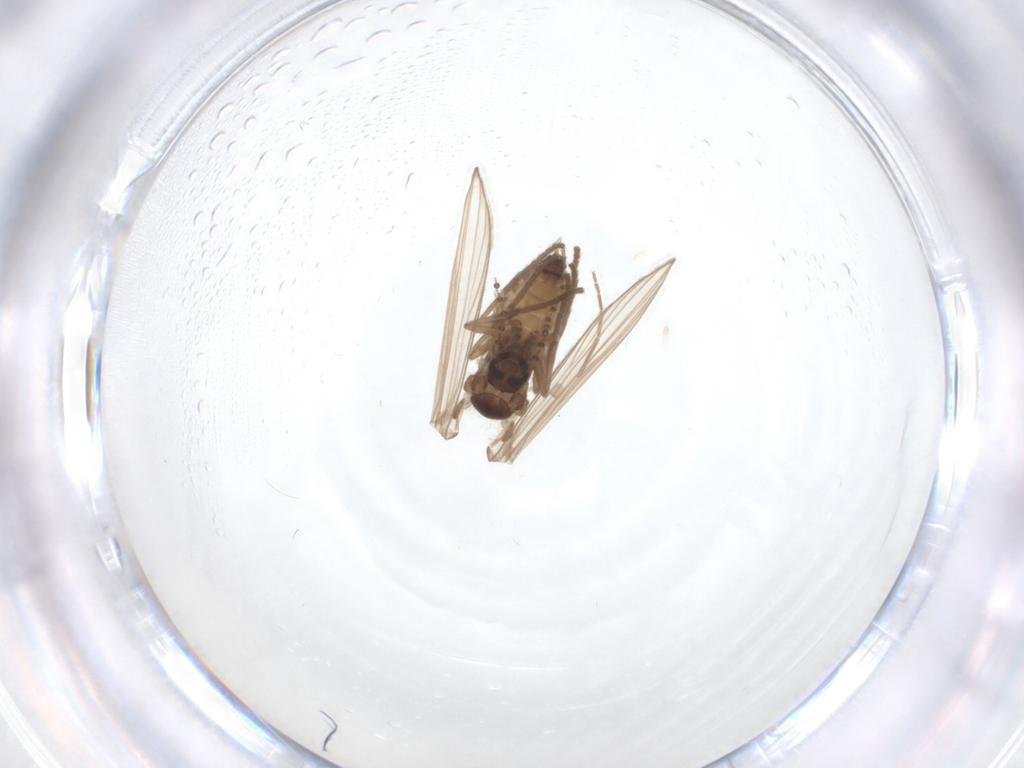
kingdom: Animalia
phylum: Arthropoda
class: Insecta
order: Diptera
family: Psychodidae
